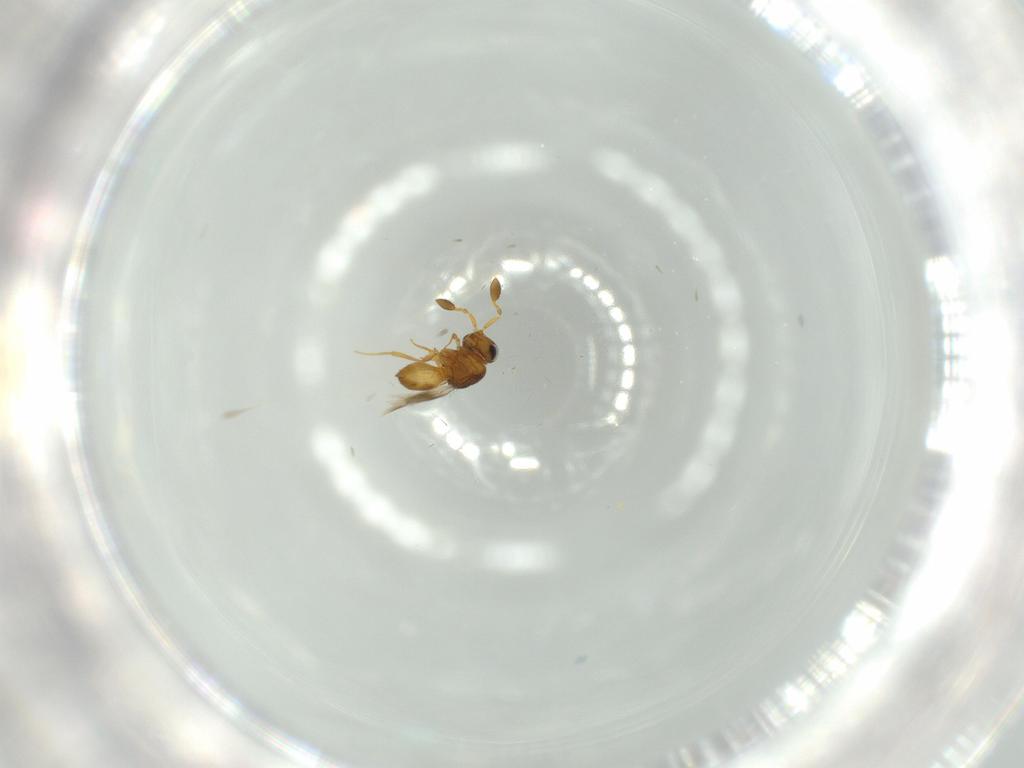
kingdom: Animalia
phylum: Arthropoda
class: Insecta
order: Hymenoptera
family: Scelionidae
